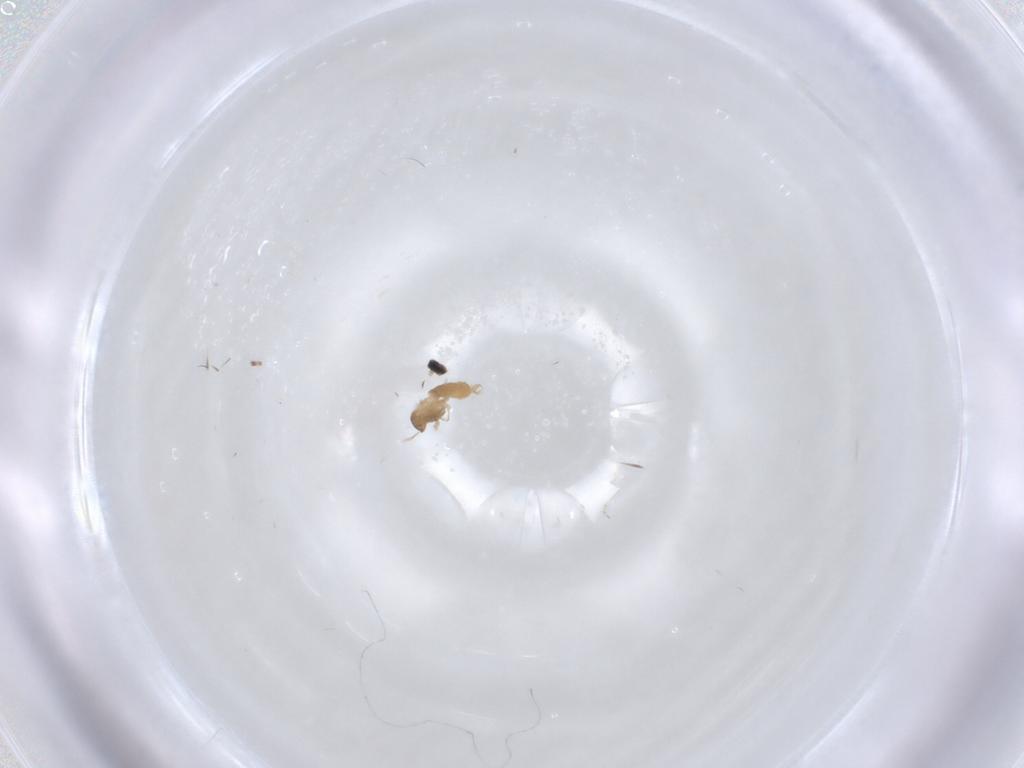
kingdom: Animalia
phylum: Arthropoda
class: Insecta
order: Diptera
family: Cecidomyiidae
